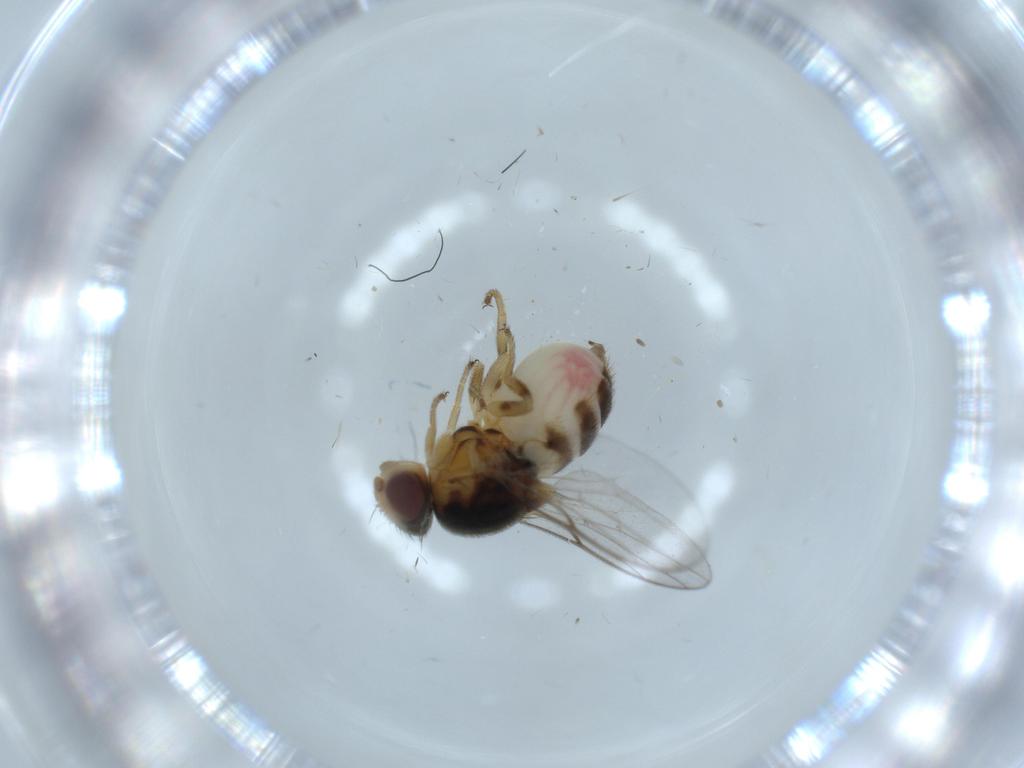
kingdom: Animalia
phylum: Arthropoda
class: Insecta
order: Diptera
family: Chloropidae
